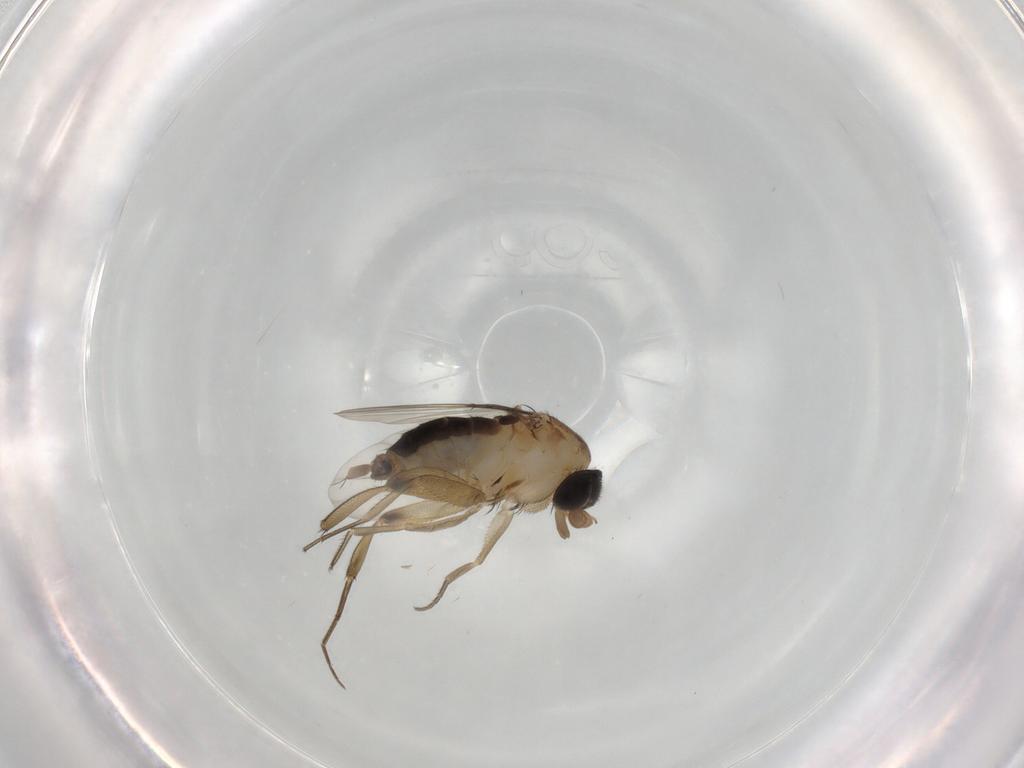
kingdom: Animalia
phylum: Arthropoda
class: Insecta
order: Diptera
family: Phoridae
